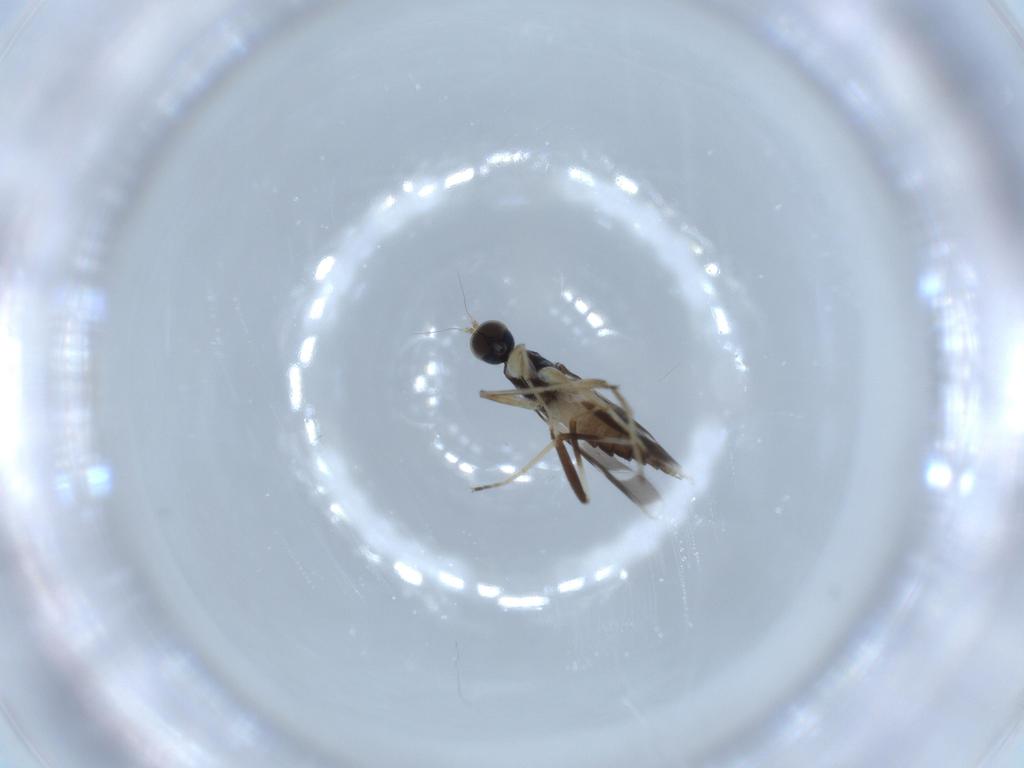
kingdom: Animalia
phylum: Arthropoda
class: Insecta
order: Diptera
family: Hybotidae
